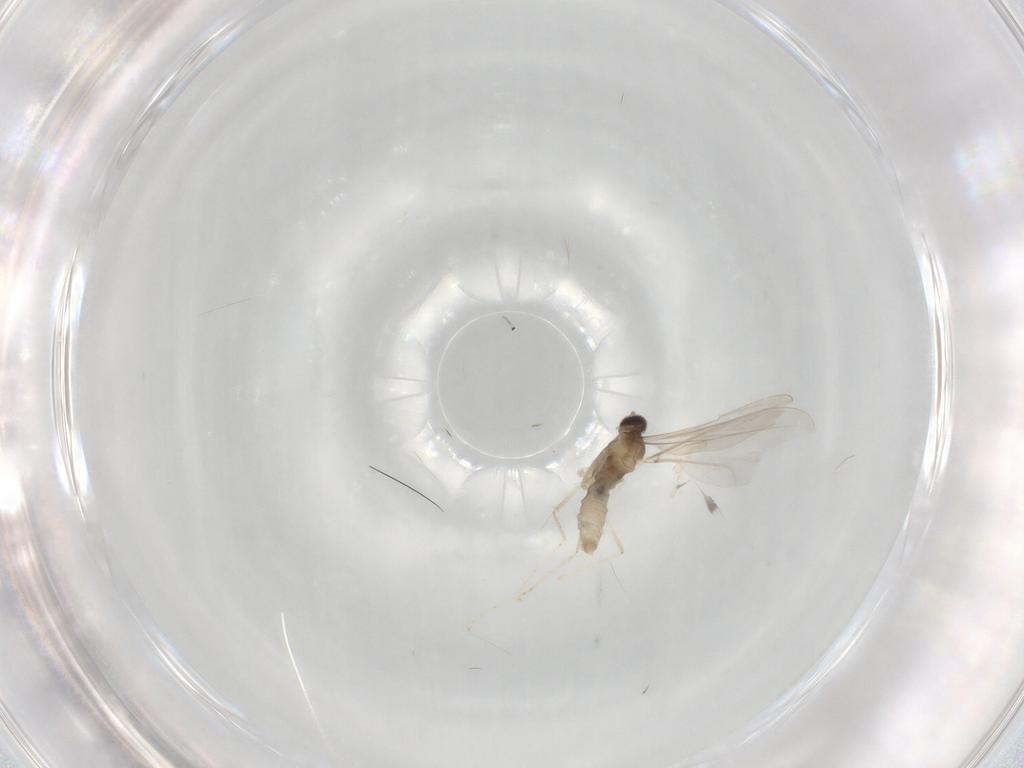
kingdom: Animalia
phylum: Arthropoda
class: Insecta
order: Diptera
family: Cecidomyiidae
